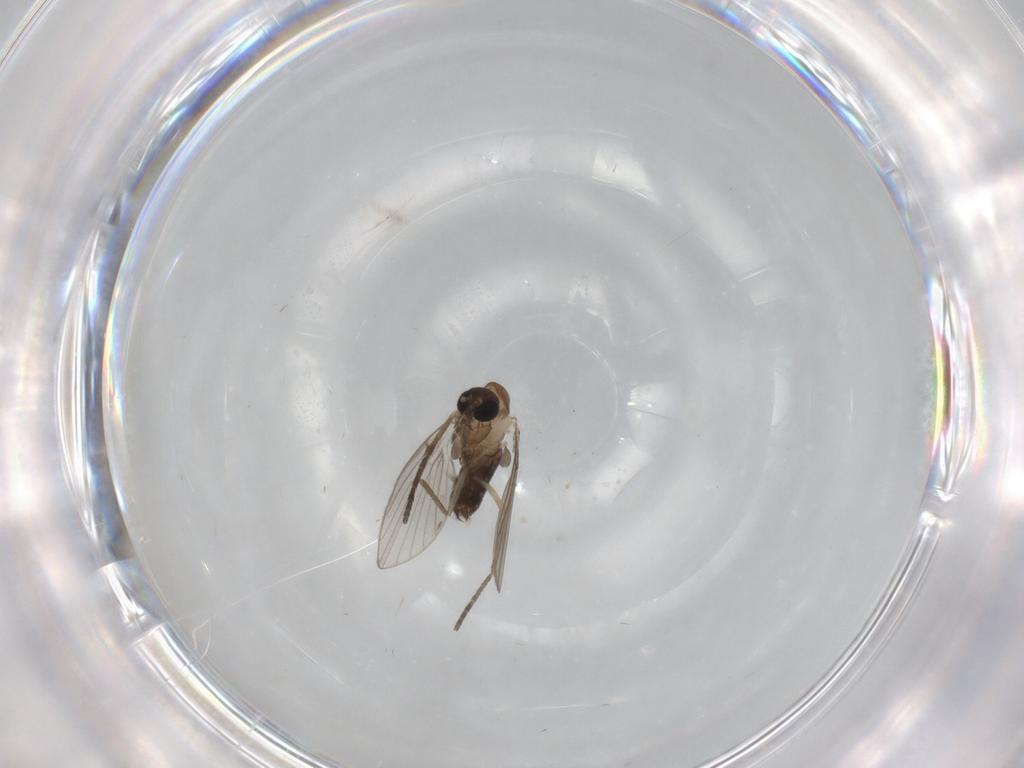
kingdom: Animalia
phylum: Arthropoda
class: Insecta
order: Diptera
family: Psychodidae
